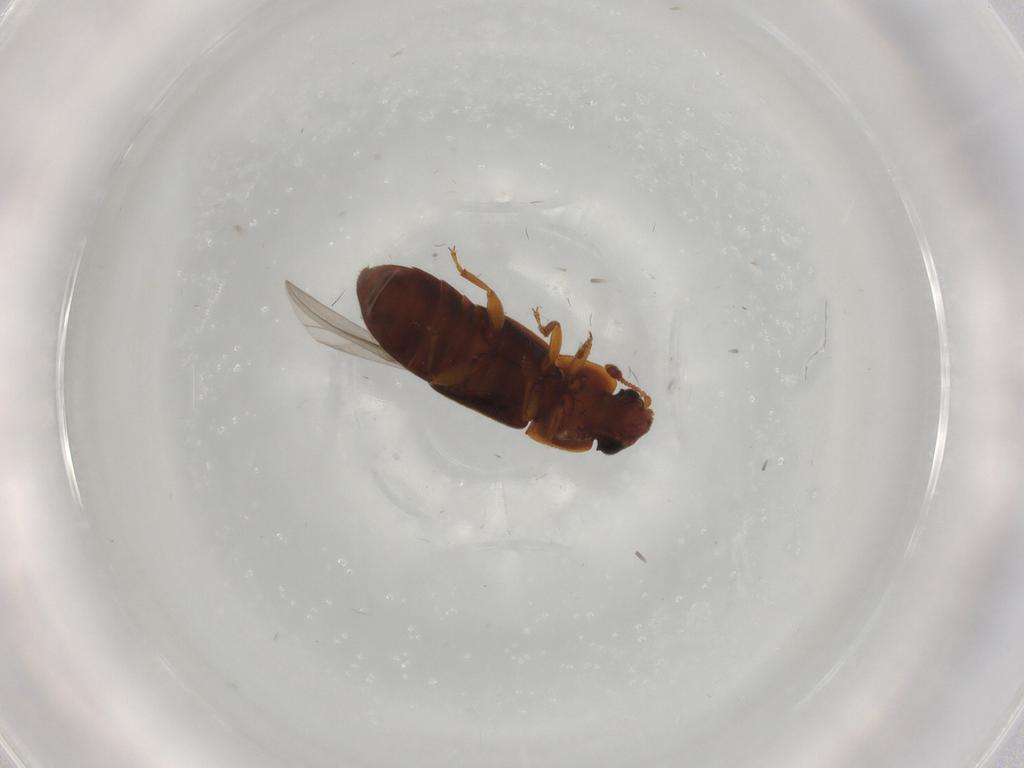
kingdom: Animalia
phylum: Arthropoda
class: Insecta
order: Coleoptera
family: Nitidulidae
